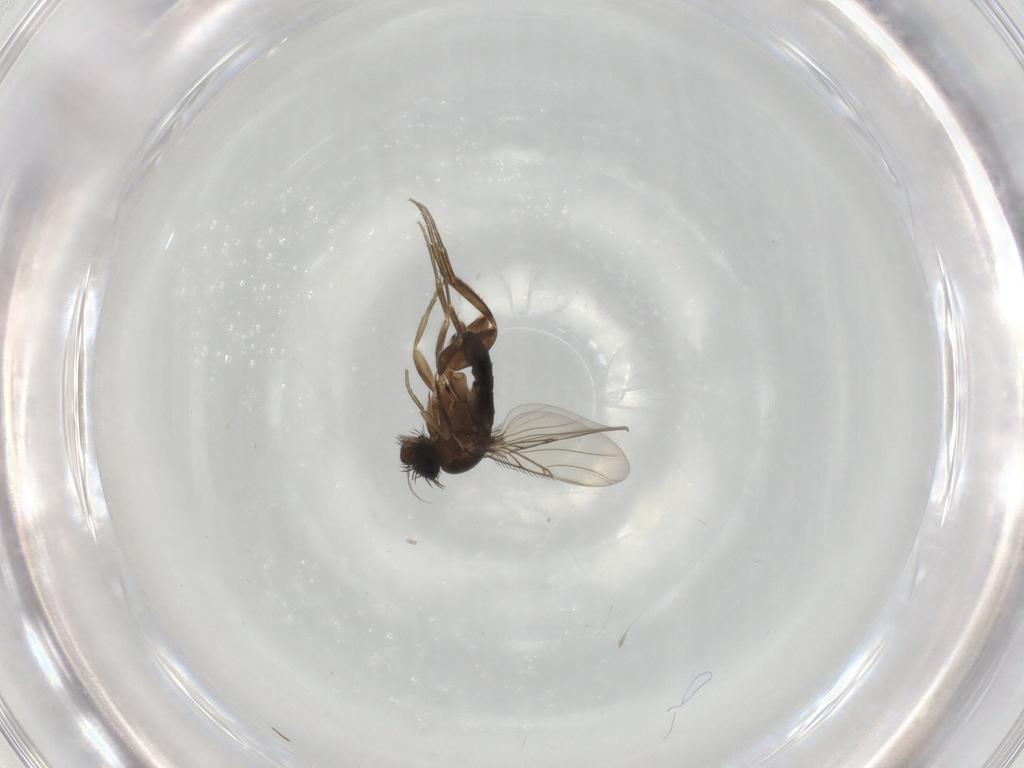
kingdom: Animalia
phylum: Arthropoda
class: Insecta
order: Diptera
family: Phoridae
